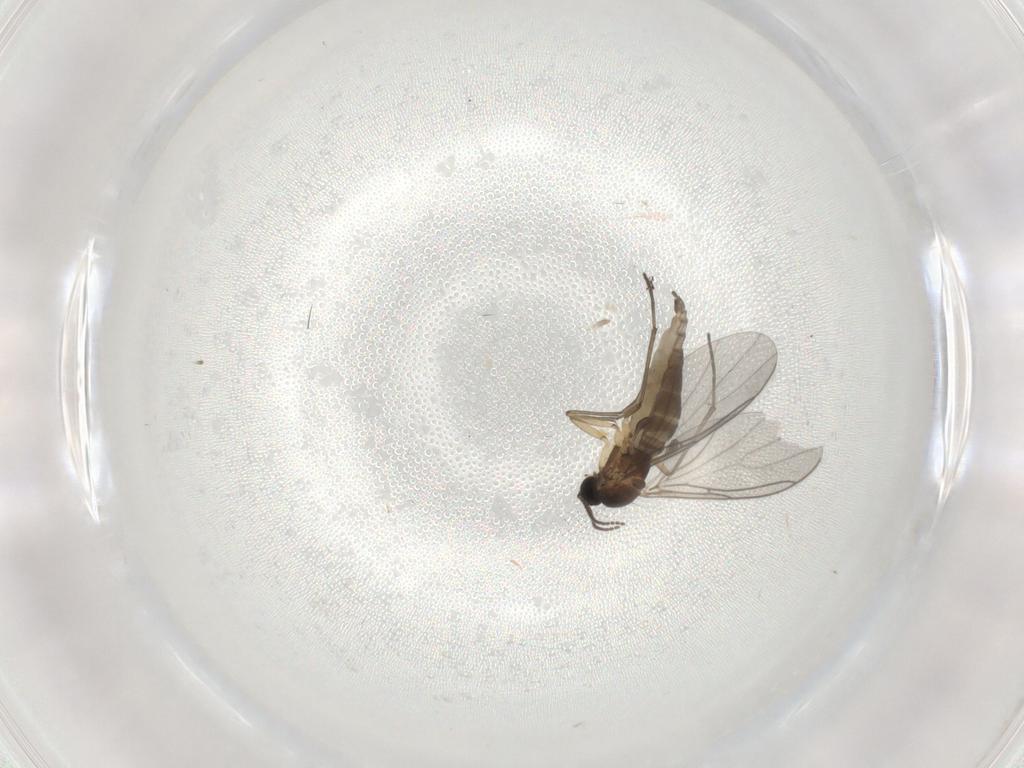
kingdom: Animalia
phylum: Arthropoda
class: Insecta
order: Diptera
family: Sciaridae
